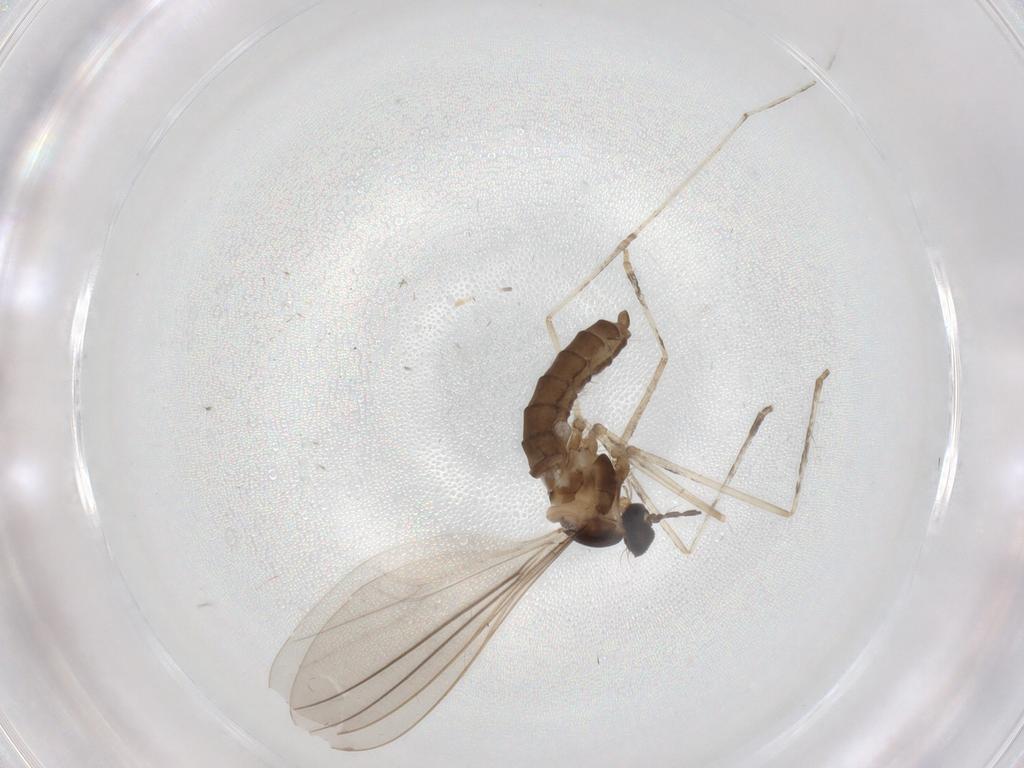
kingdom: Animalia
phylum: Arthropoda
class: Insecta
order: Diptera
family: Cecidomyiidae
